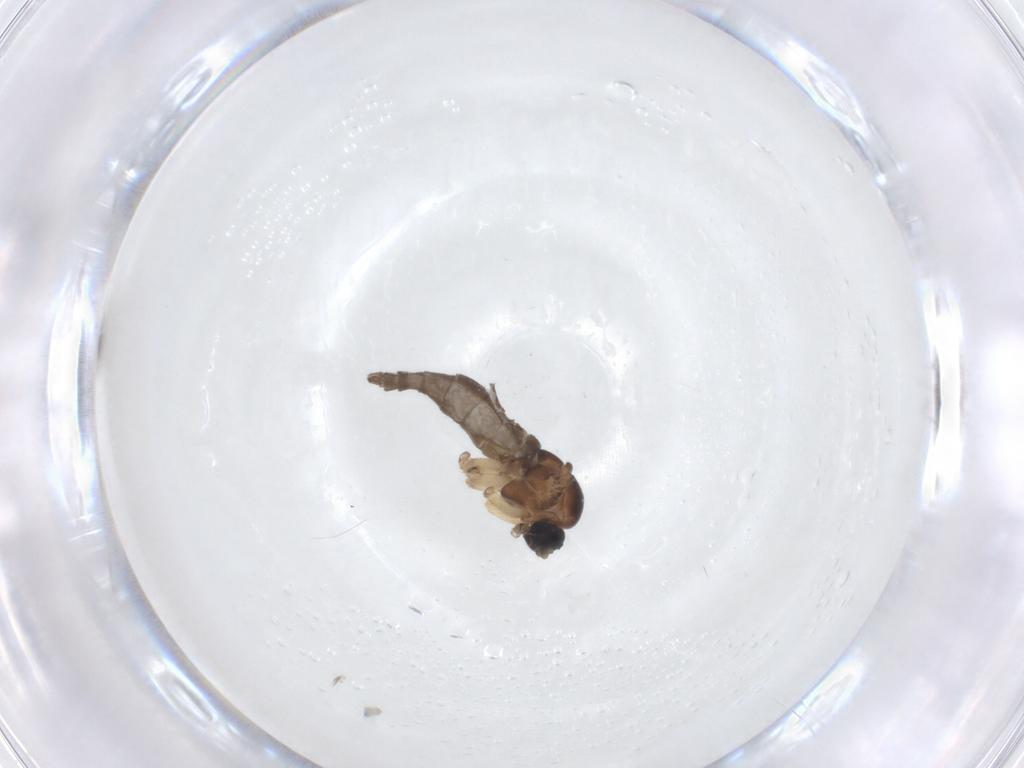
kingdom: Animalia
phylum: Arthropoda
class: Insecta
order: Diptera
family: Sciaridae
